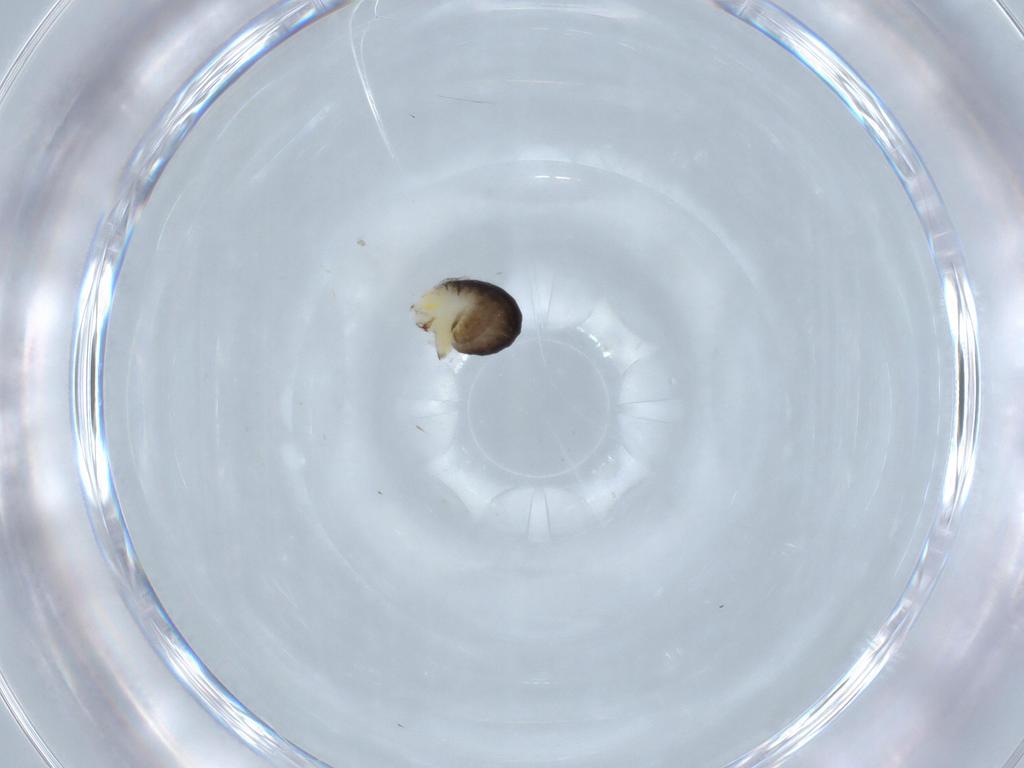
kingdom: Animalia
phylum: Arthropoda
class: Insecta
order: Hymenoptera
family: Dryinidae
